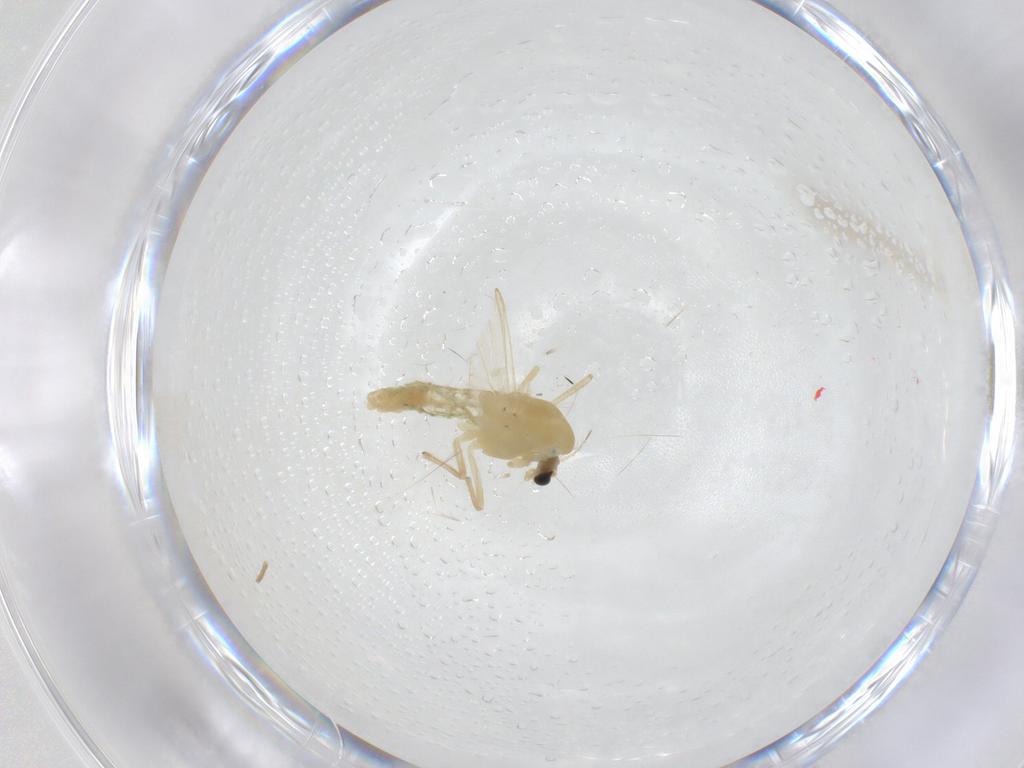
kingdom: Animalia
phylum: Arthropoda
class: Insecta
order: Diptera
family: Chironomidae
